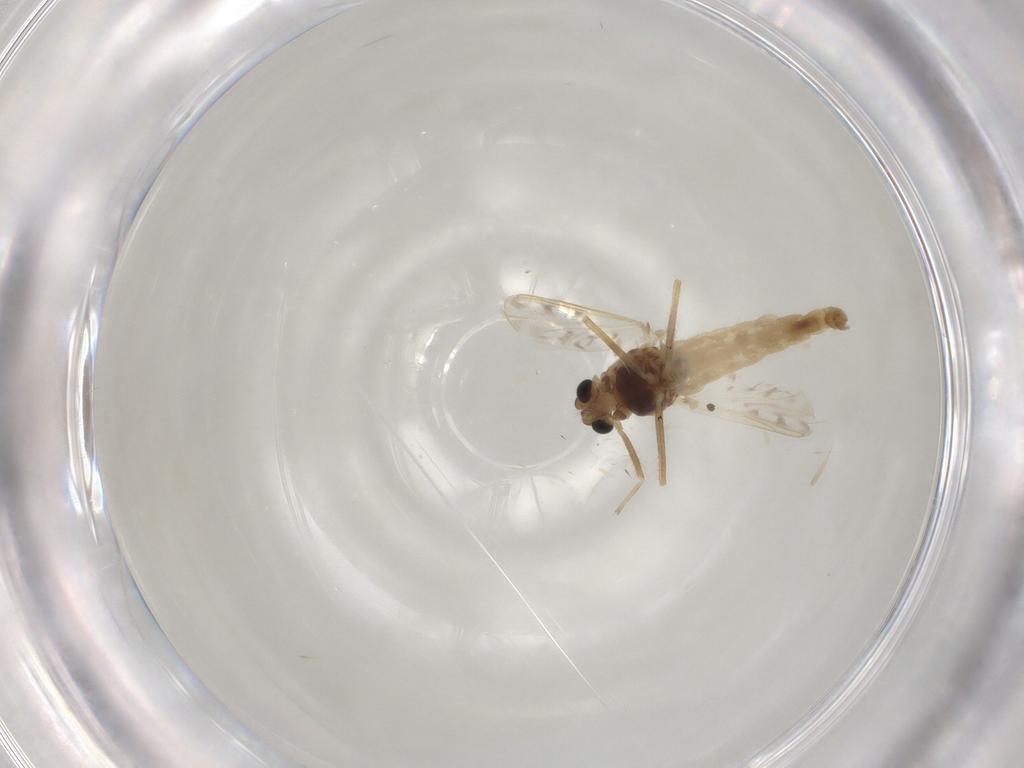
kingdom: Animalia
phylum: Arthropoda
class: Insecta
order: Diptera
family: Chironomidae
